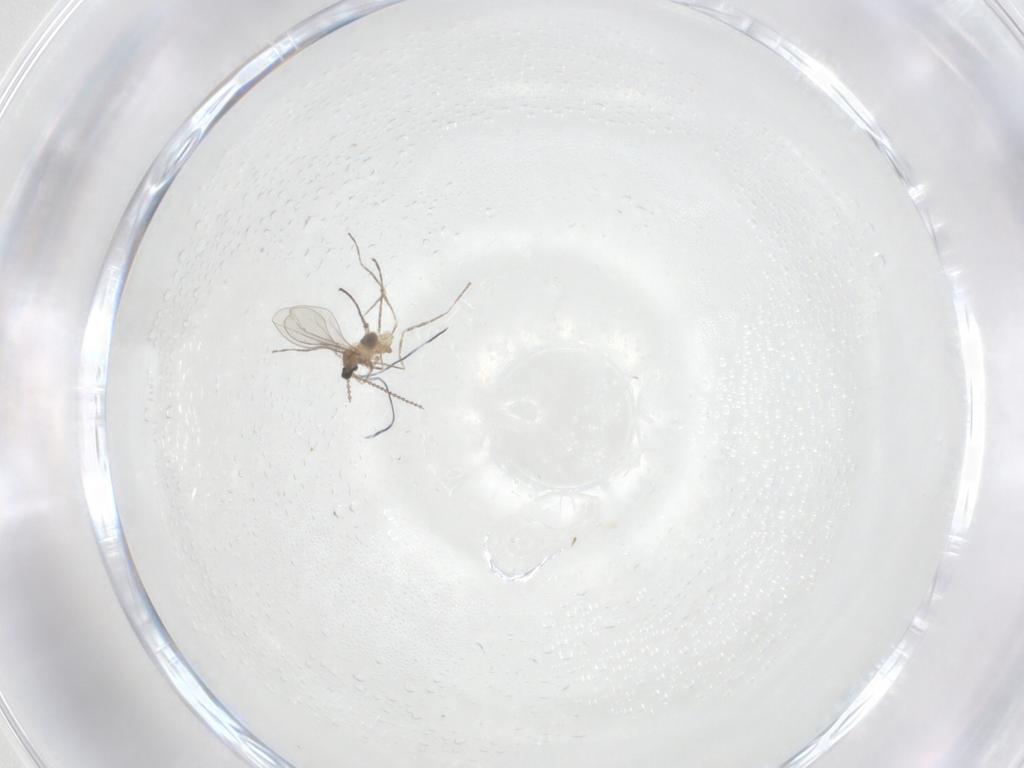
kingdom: Animalia
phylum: Arthropoda
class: Insecta
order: Diptera
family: Cecidomyiidae
